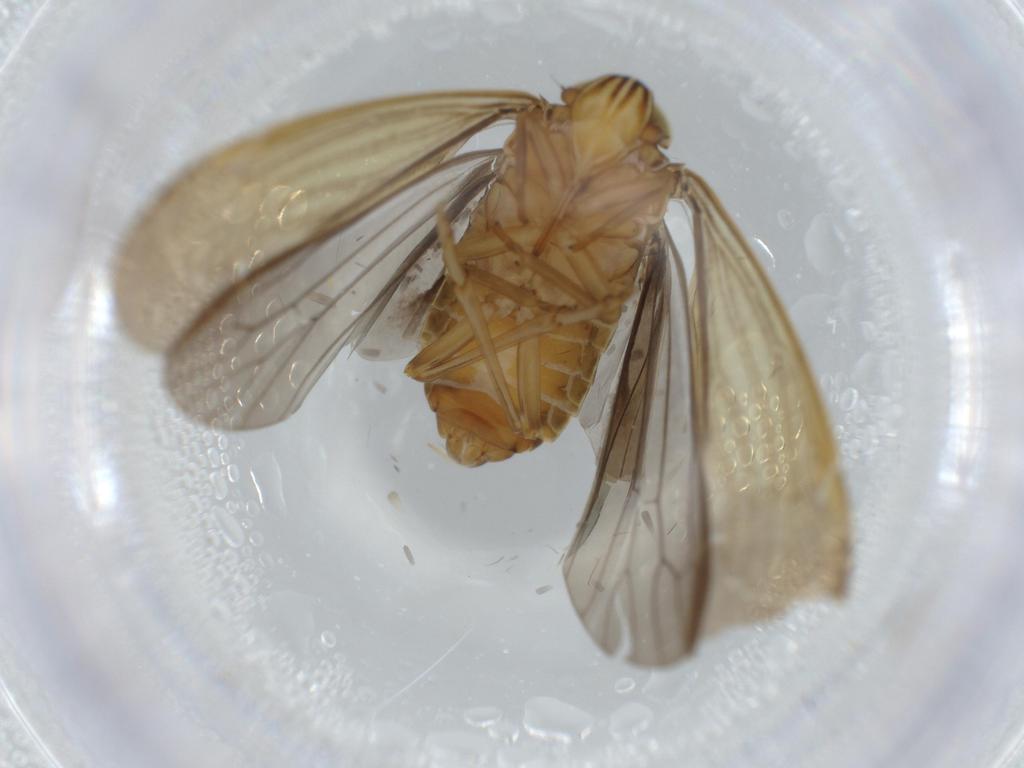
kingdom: Animalia
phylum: Arthropoda
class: Insecta
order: Hemiptera
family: Achilidae
